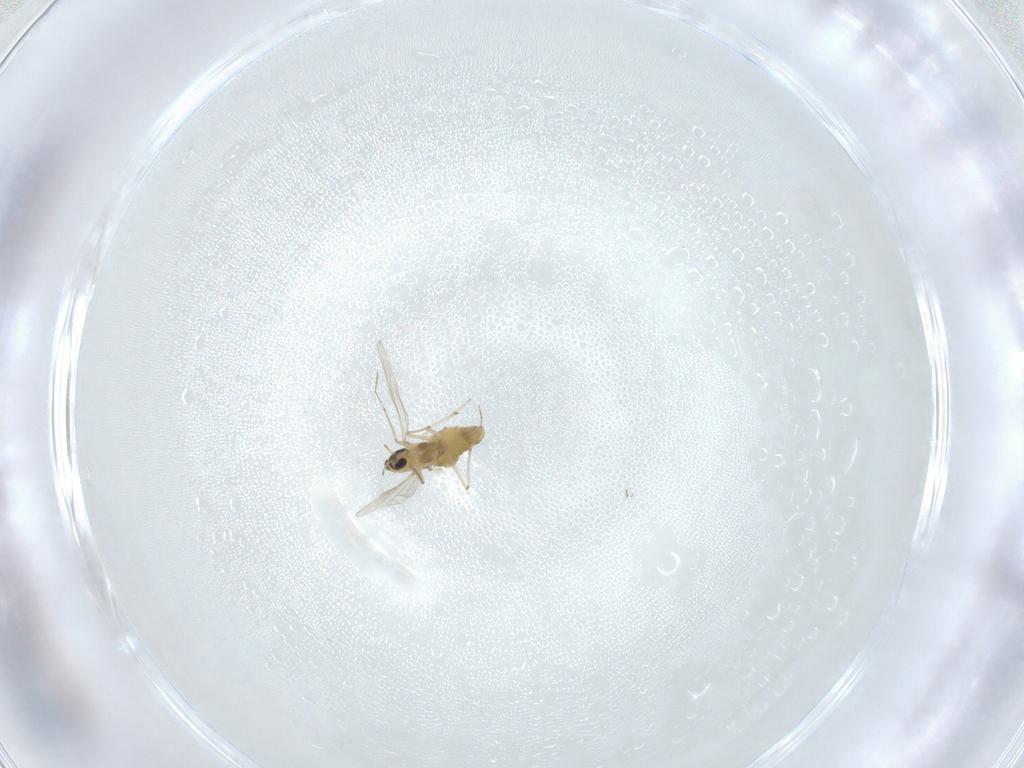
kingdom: Animalia
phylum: Arthropoda
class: Insecta
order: Diptera
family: Chironomidae
